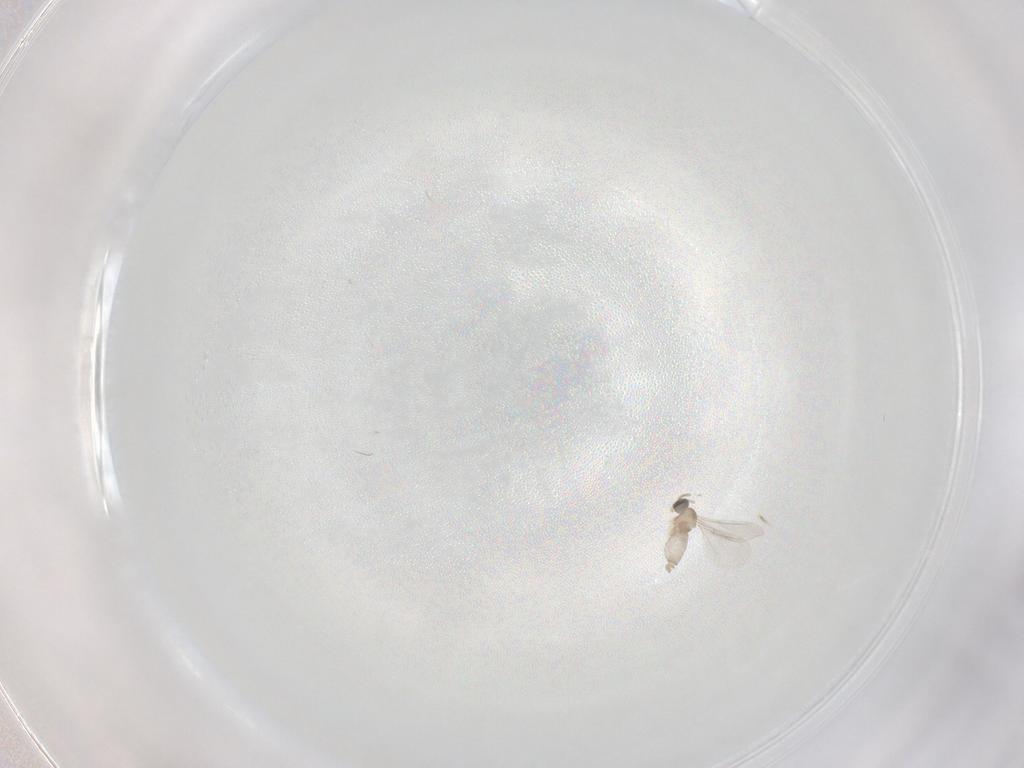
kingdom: Animalia
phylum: Arthropoda
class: Insecta
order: Diptera
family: Cecidomyiidae
